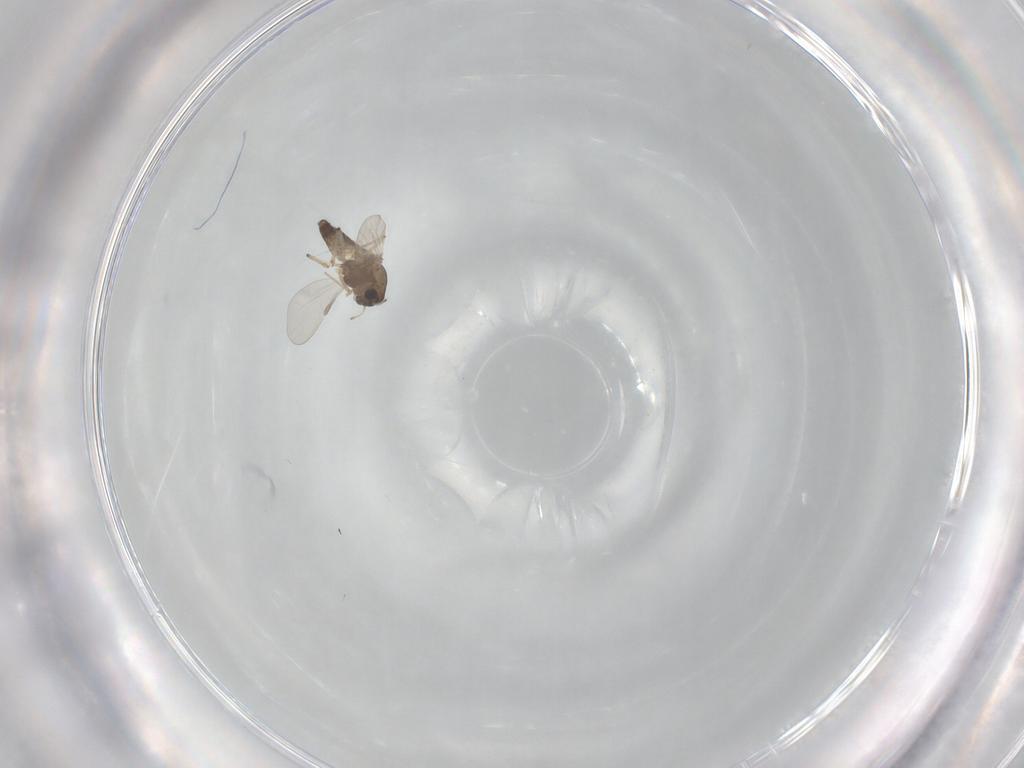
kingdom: Animalia
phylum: Arthropoda
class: Insecta
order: Diptera
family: Chironomidae
